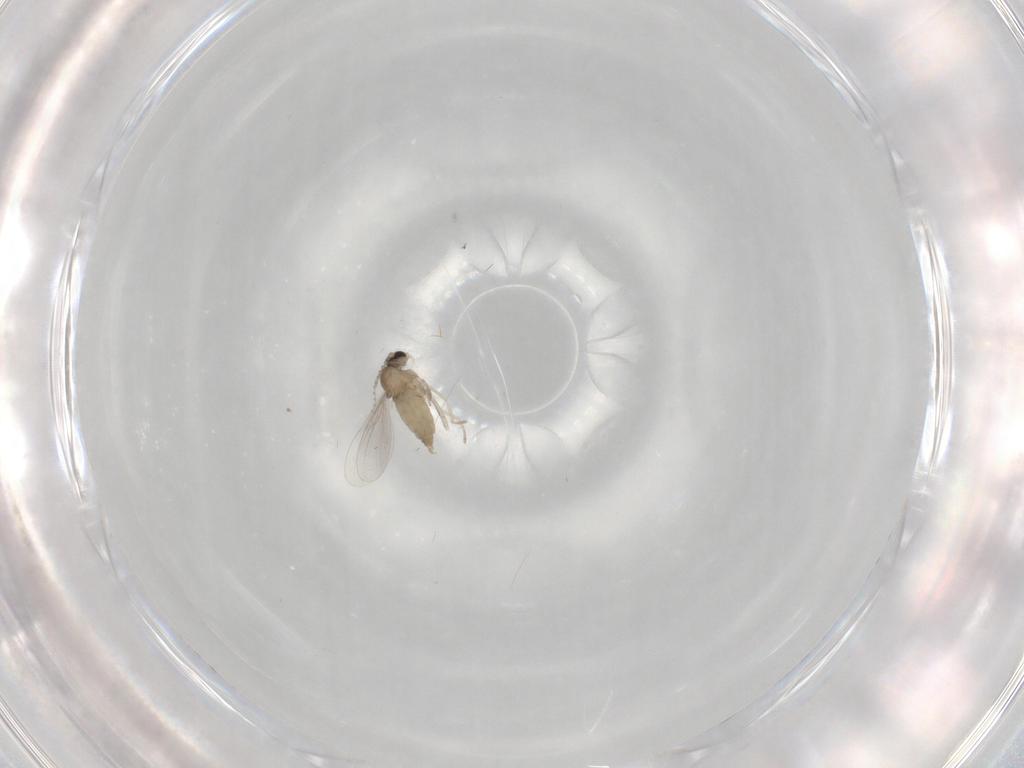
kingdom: Animalia
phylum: Arthropoda
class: Insecta
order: Diptera
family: Cecidomyiidae
